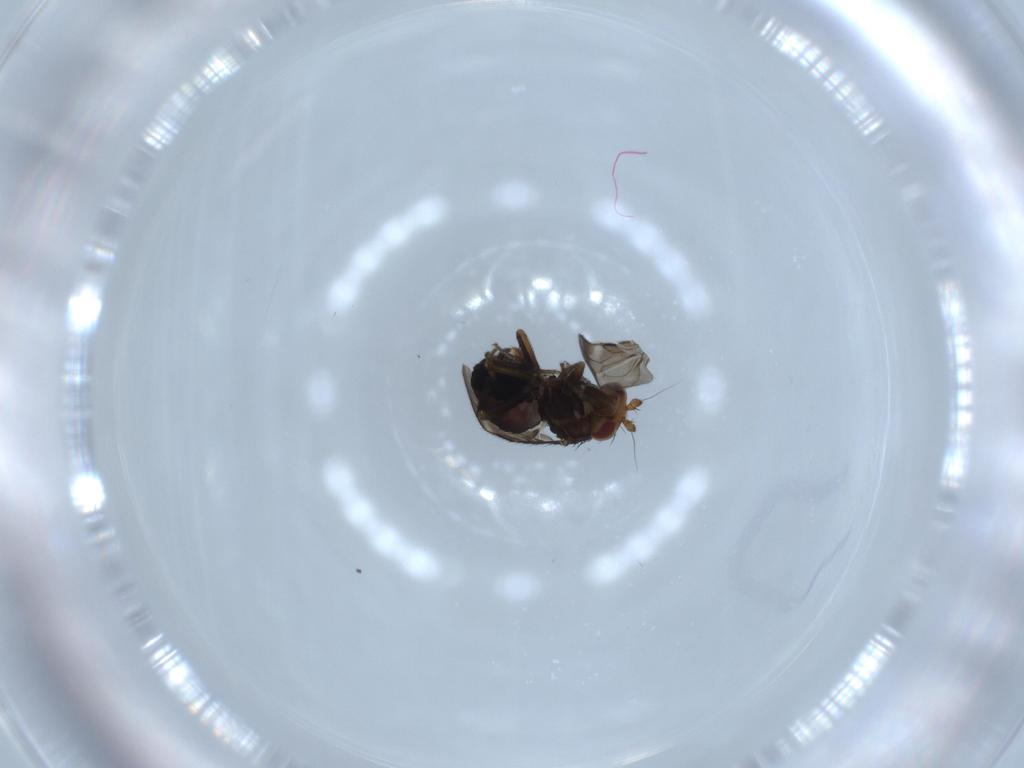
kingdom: Animalia
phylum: Arthropoda
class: Insecta
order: Diptera
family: Sphaeroceridae
